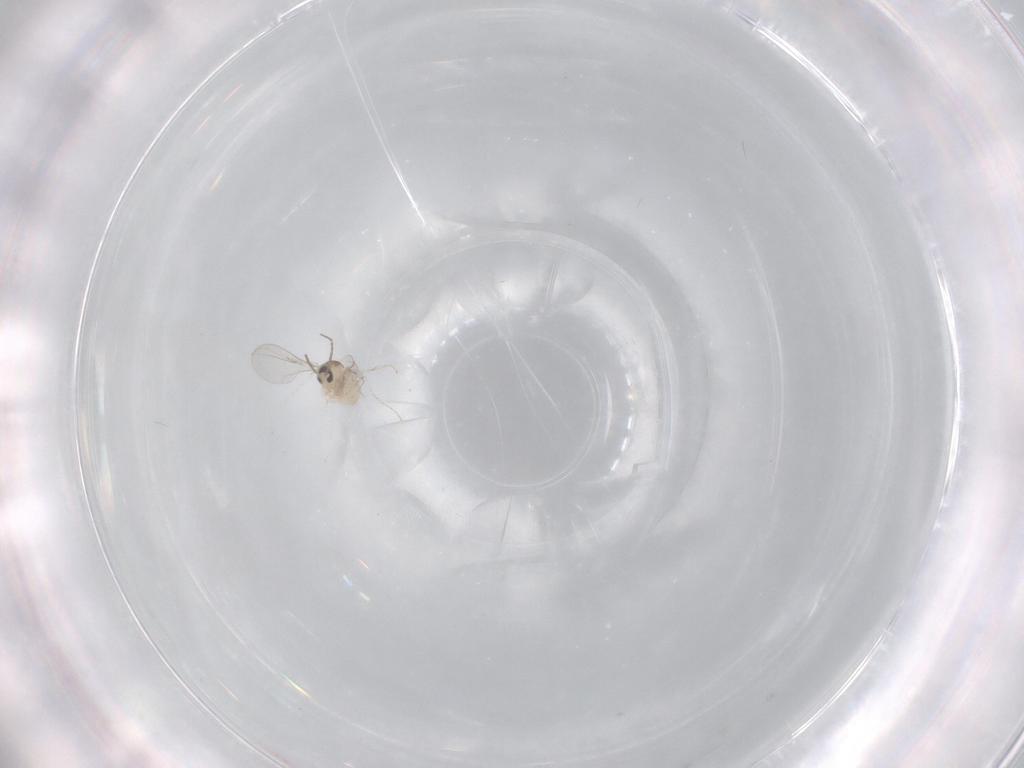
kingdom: Animalia
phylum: Arthropoda
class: Insecta
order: Diptera
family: Cecidomyiidae
